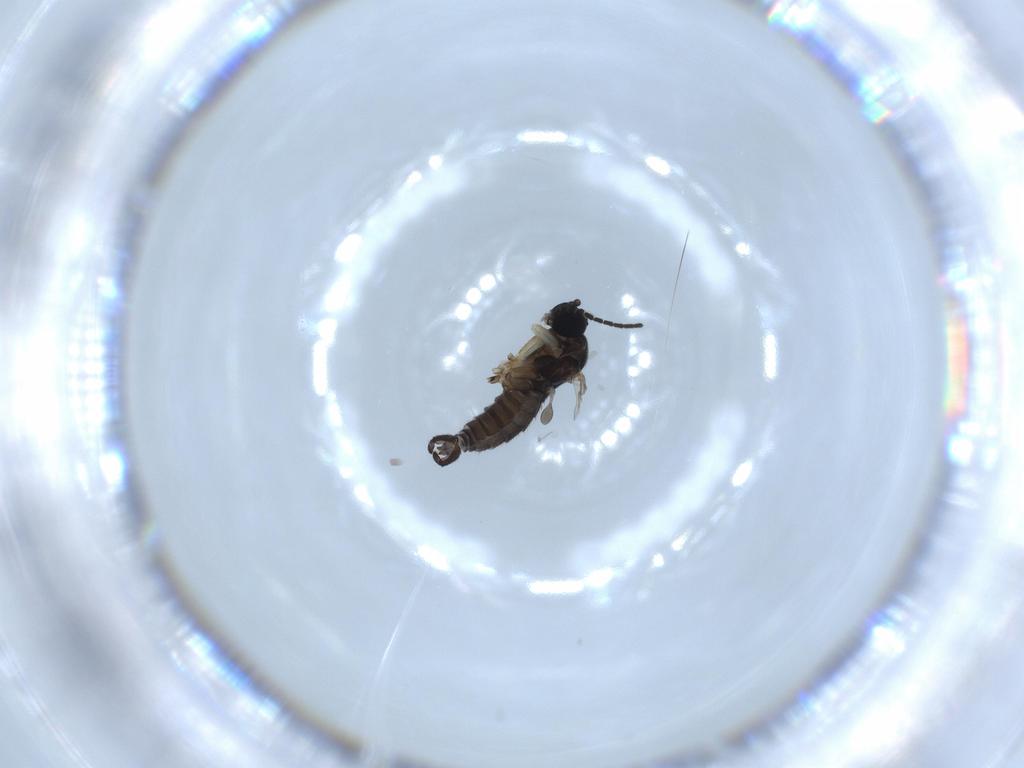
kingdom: Animalia
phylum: Arthropoda
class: Insecta
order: Diptera
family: Sciaridae
